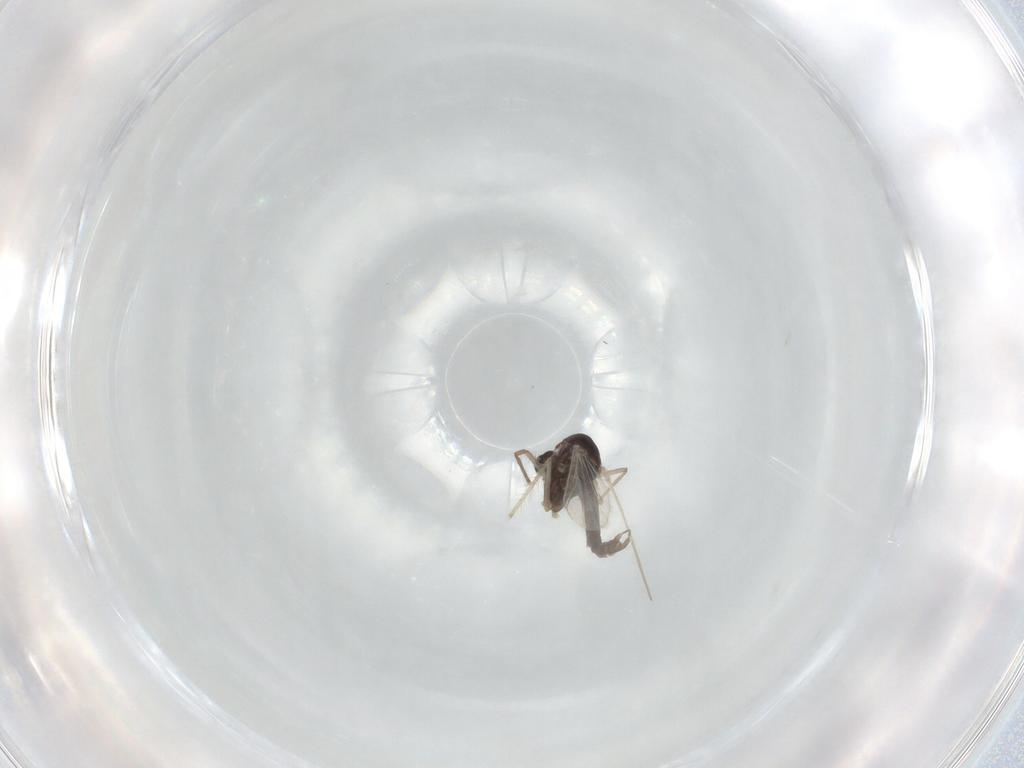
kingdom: Animalia
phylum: Arthropoda
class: Insecta
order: Diptera
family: Chironomidae
